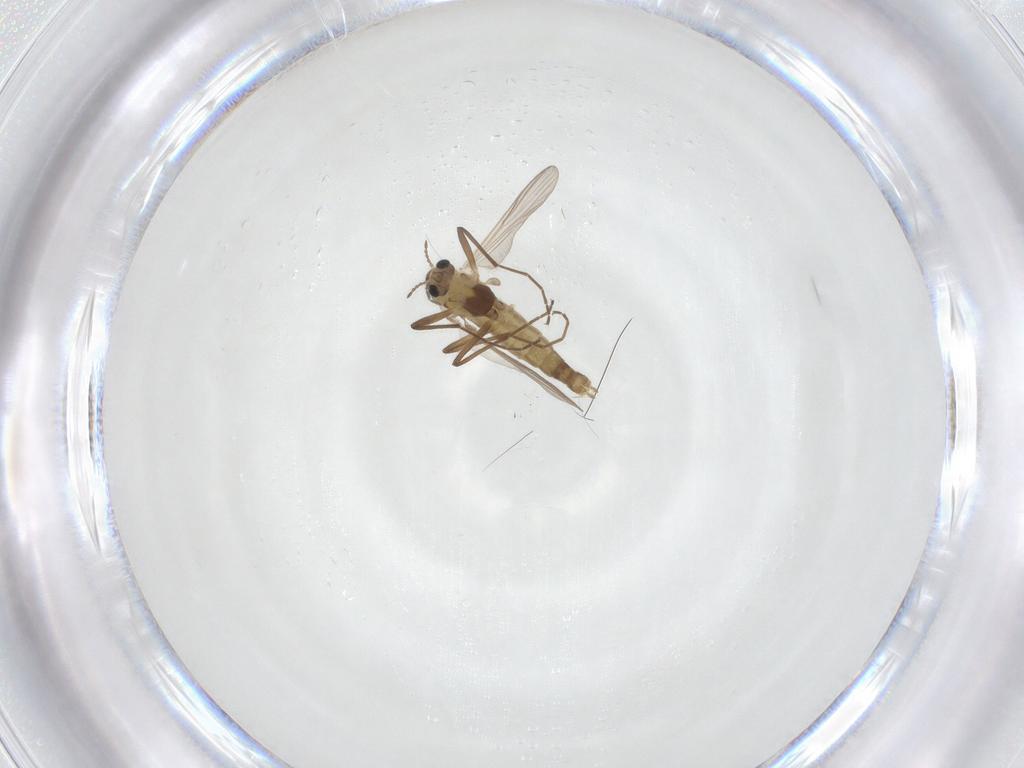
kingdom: Animalia
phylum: Arthropoda
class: Insecta
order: Diptera
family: Chironomidae
